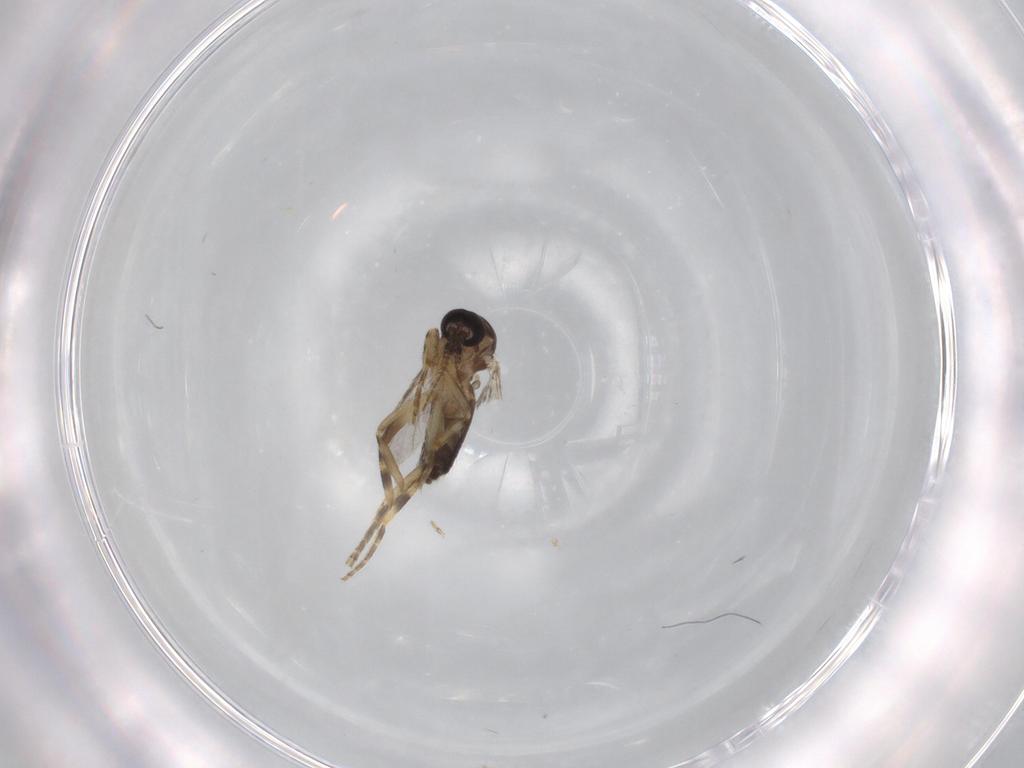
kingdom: Animalia
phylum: Arthropoda
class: Insecta
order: Diptera
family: Ceratopogonidae
